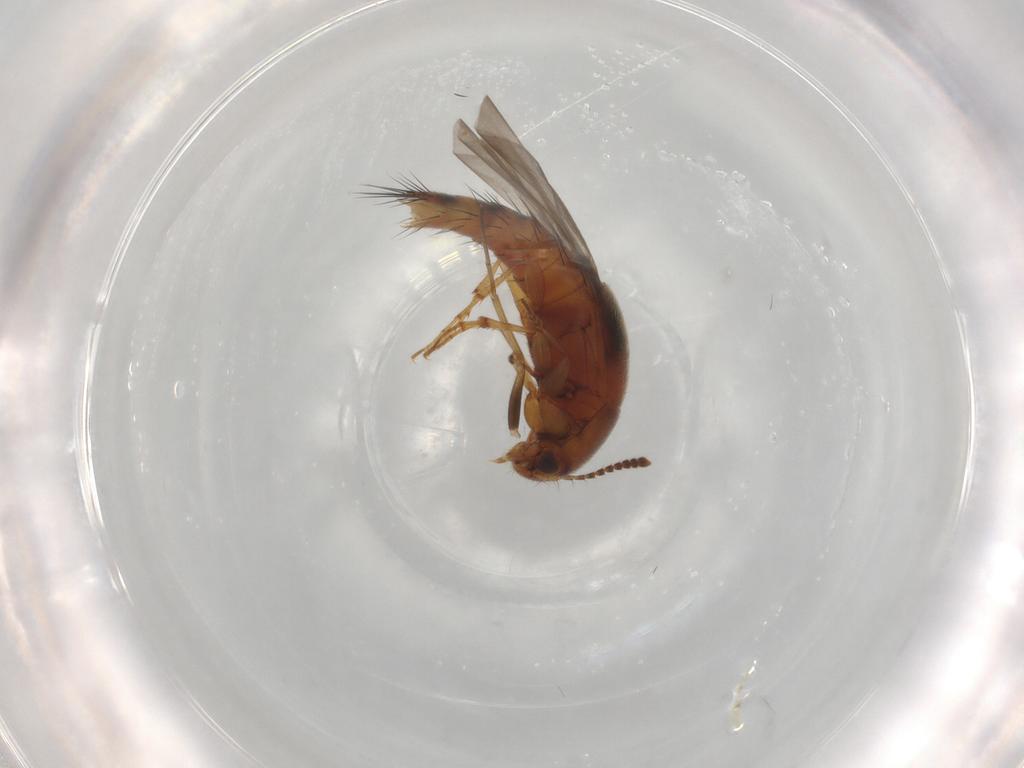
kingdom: Animalia
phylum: Arthropoda
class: Insecta
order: Coleoptera
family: Staphylinidae
